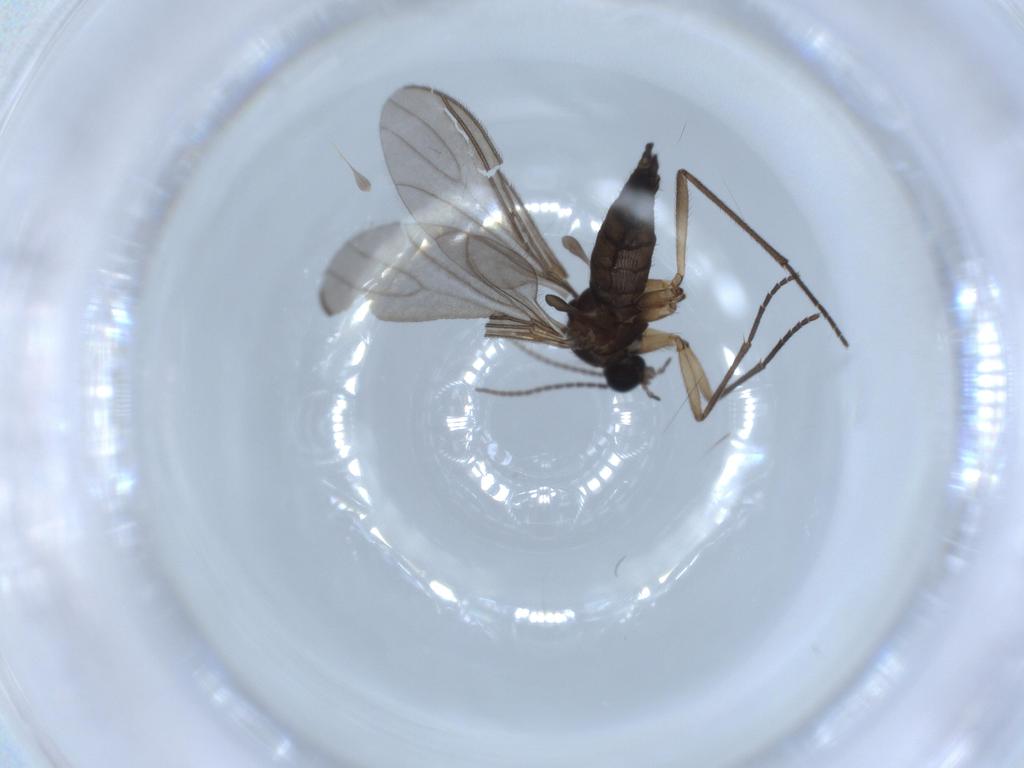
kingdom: Animalia
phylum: Arthropoda
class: Insecta
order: Diptera
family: Sciaridae
